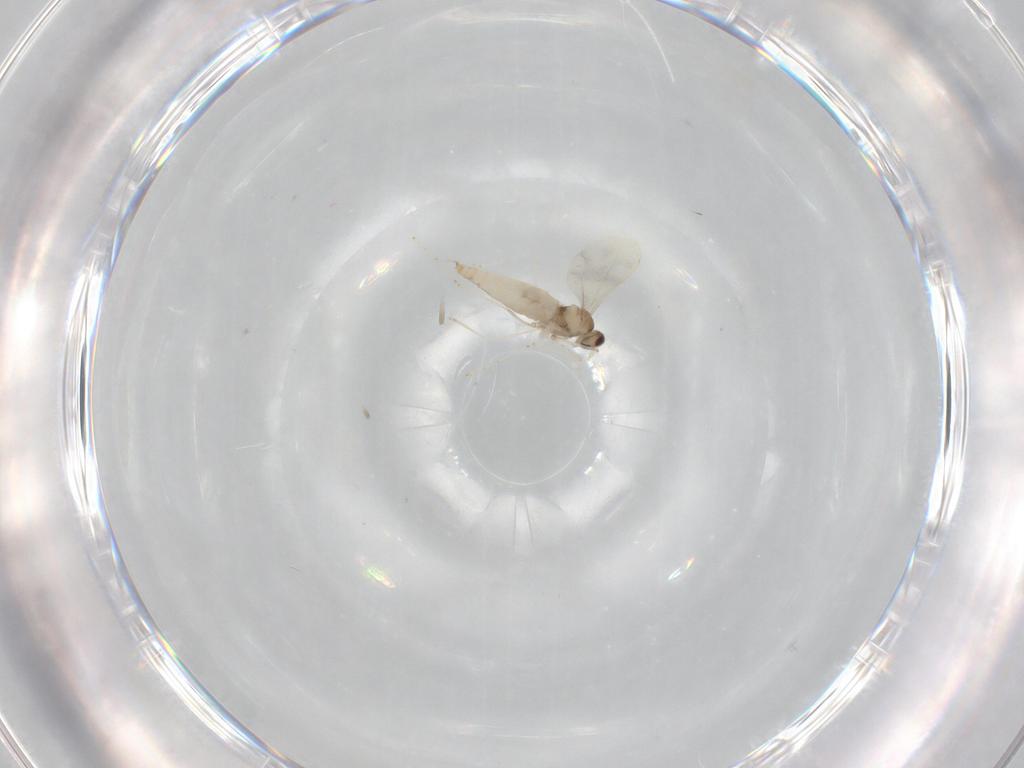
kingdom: Animalia
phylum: Arthropoda
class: Insecta
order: Diptera
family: Cecidomyiidae
